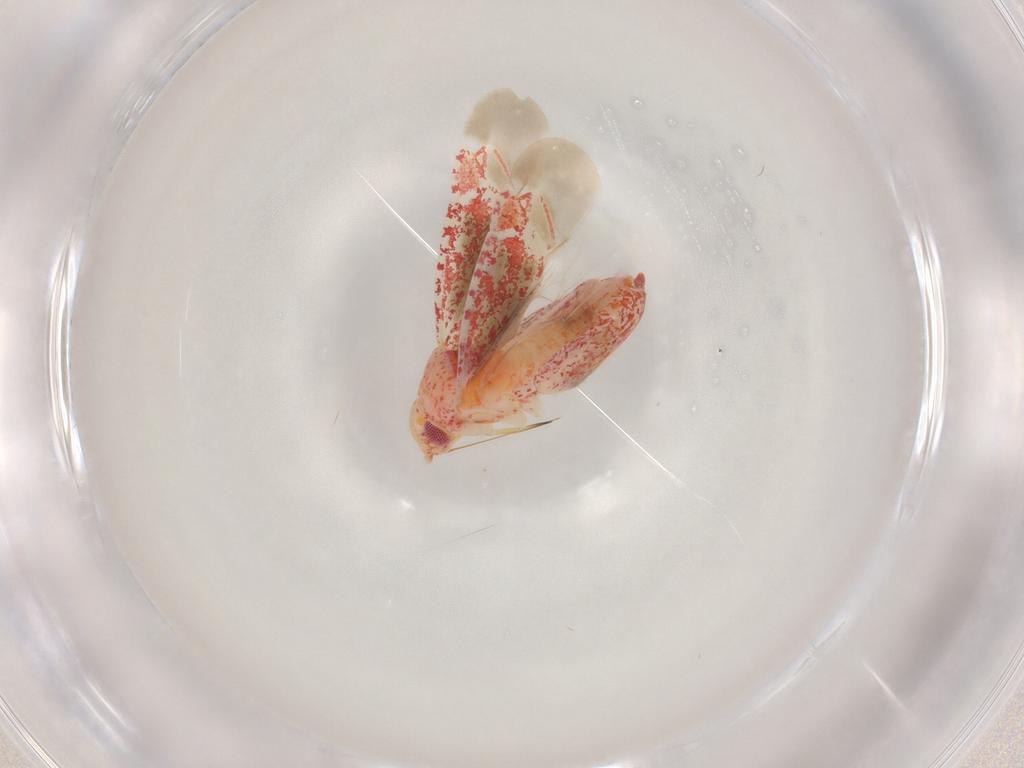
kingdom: Animalia
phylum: Arthropoda
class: Insecta
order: Hemiptera
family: Miridae
